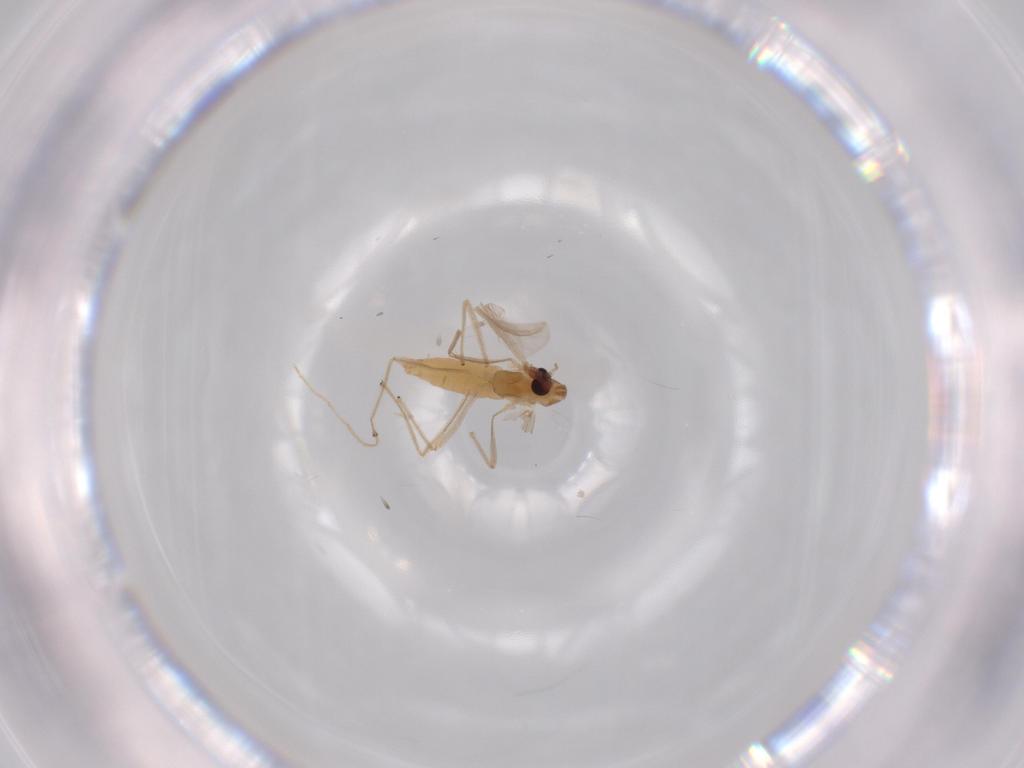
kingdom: Animalia
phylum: Arthropoda
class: Insecta
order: Diptera
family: Chironomidae
